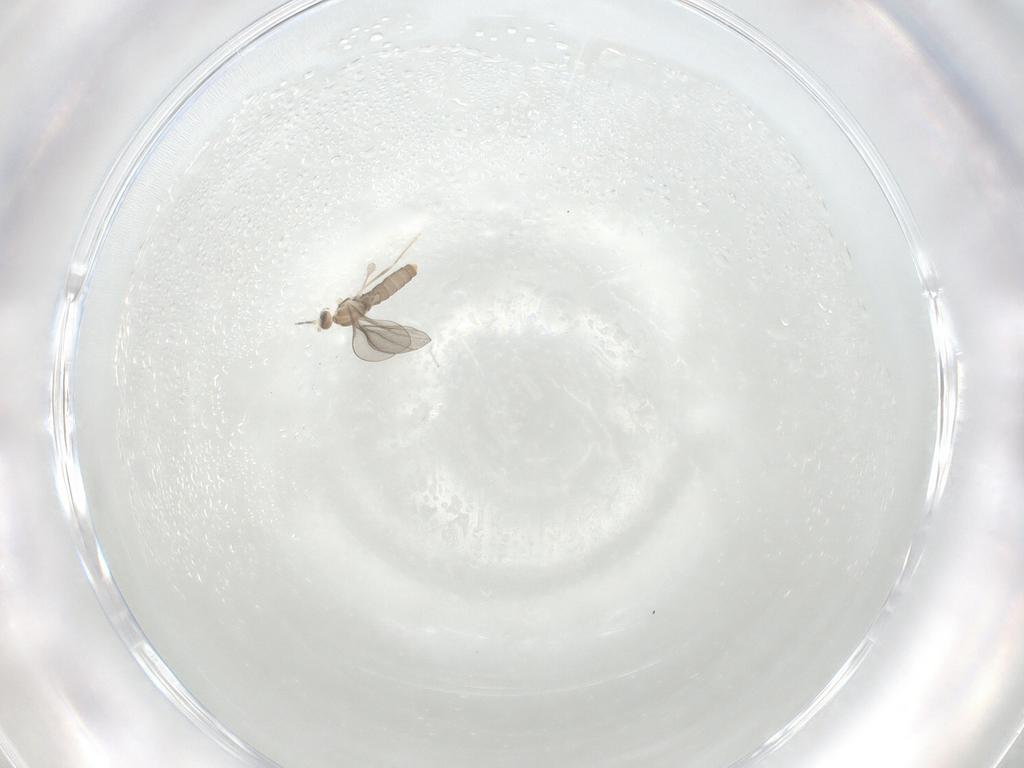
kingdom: Animalia
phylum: Arthropoda
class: Insecta
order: Diptera
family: Cecidomyiidae
